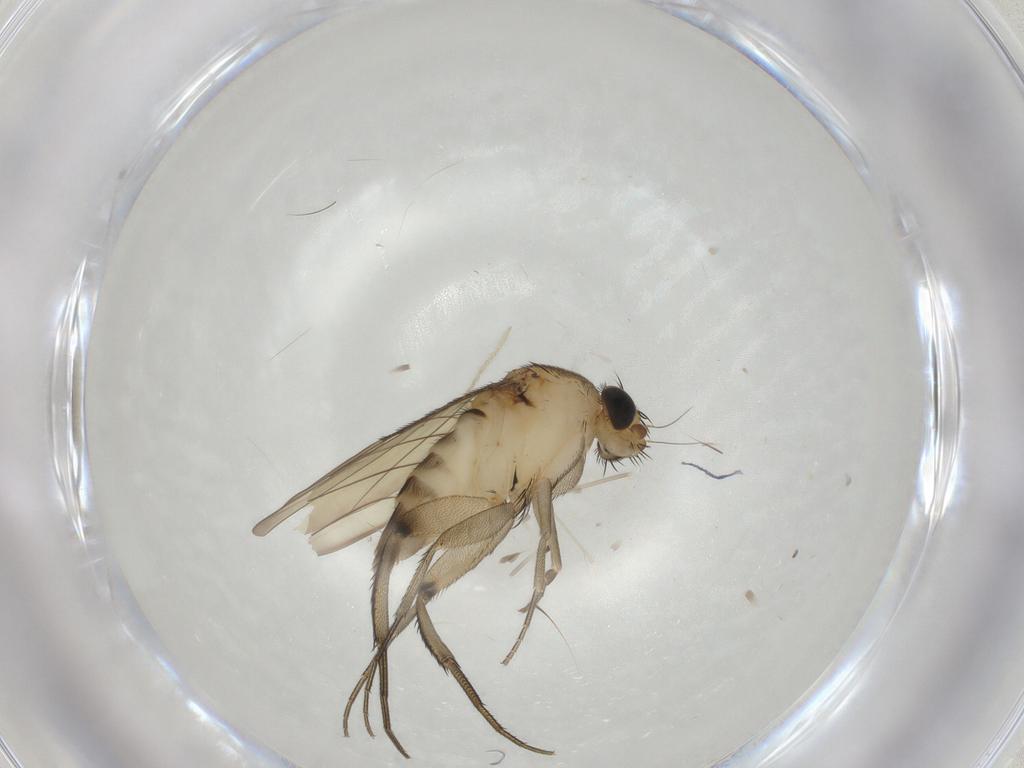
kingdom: Animalia
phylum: Arthropoda
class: Insecta
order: Diptera
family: Phoridae
